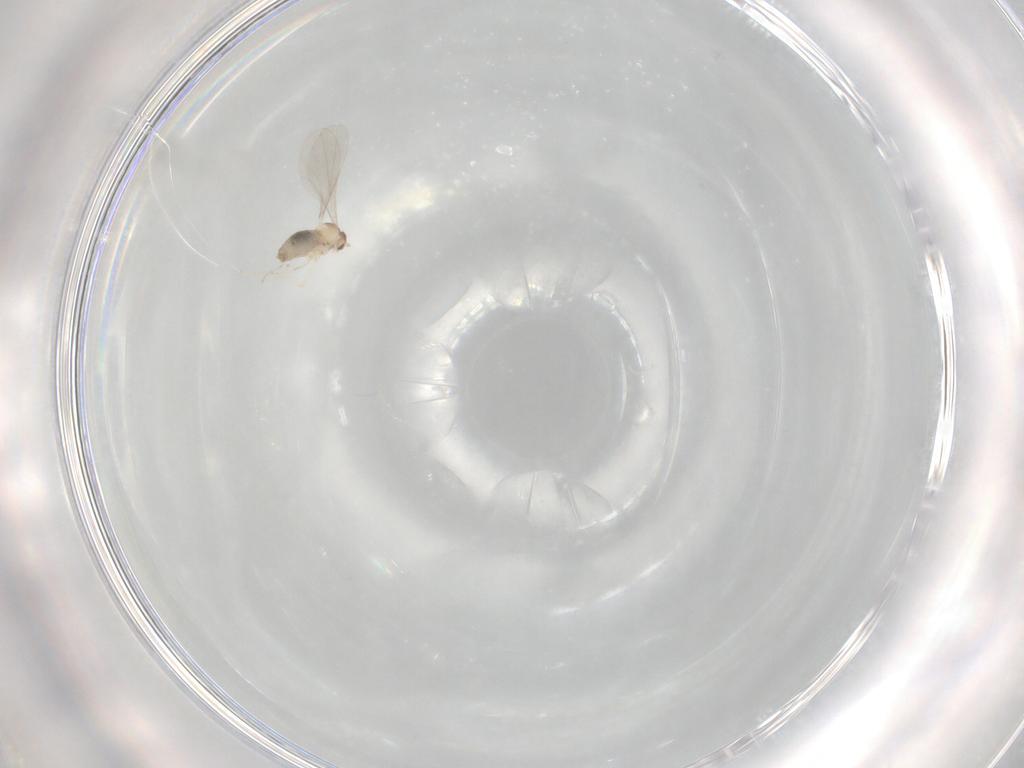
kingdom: Animalia
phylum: Arthropoda
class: Insecta
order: Diptera
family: Cecidomyiidae
